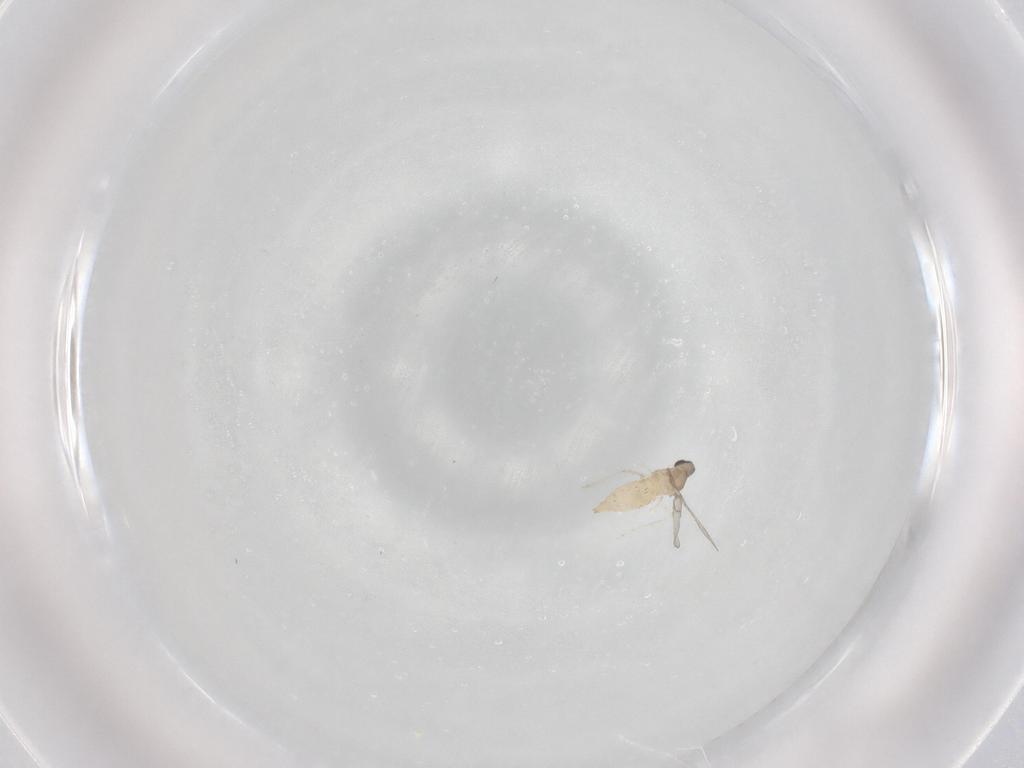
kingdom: Animalia
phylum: Arthropoda
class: Insecta
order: Diptera
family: Cecidomyiidae
